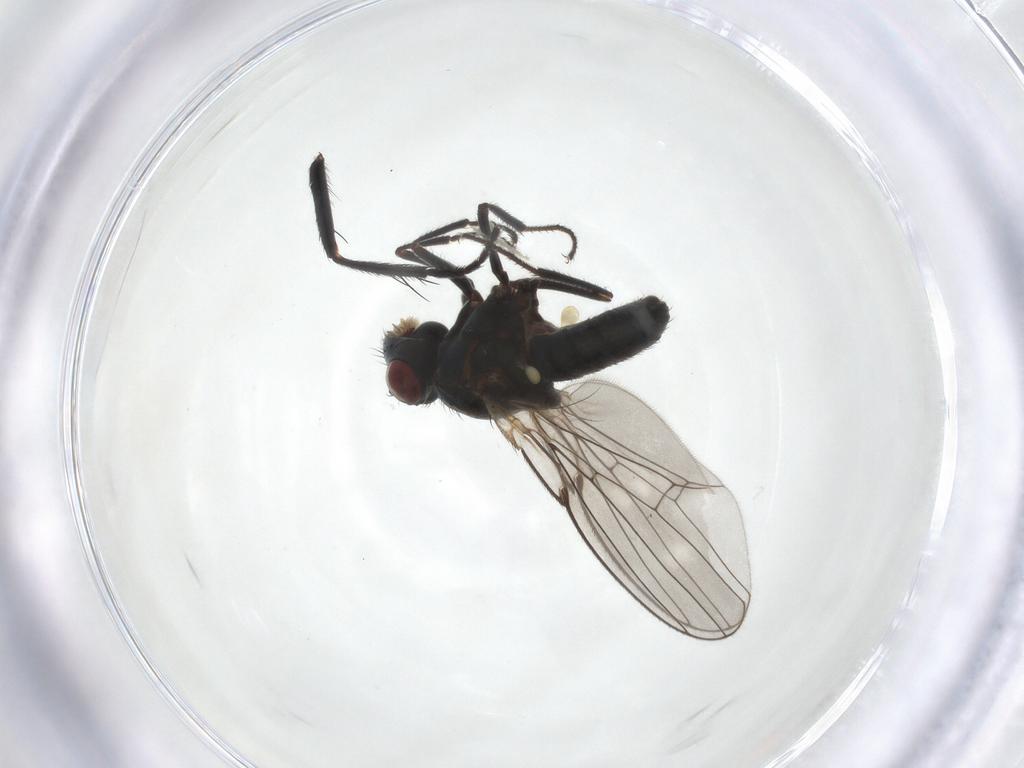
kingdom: Animalia
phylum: Arthropoda
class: Insecta
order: Diptera
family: Ephydridae
